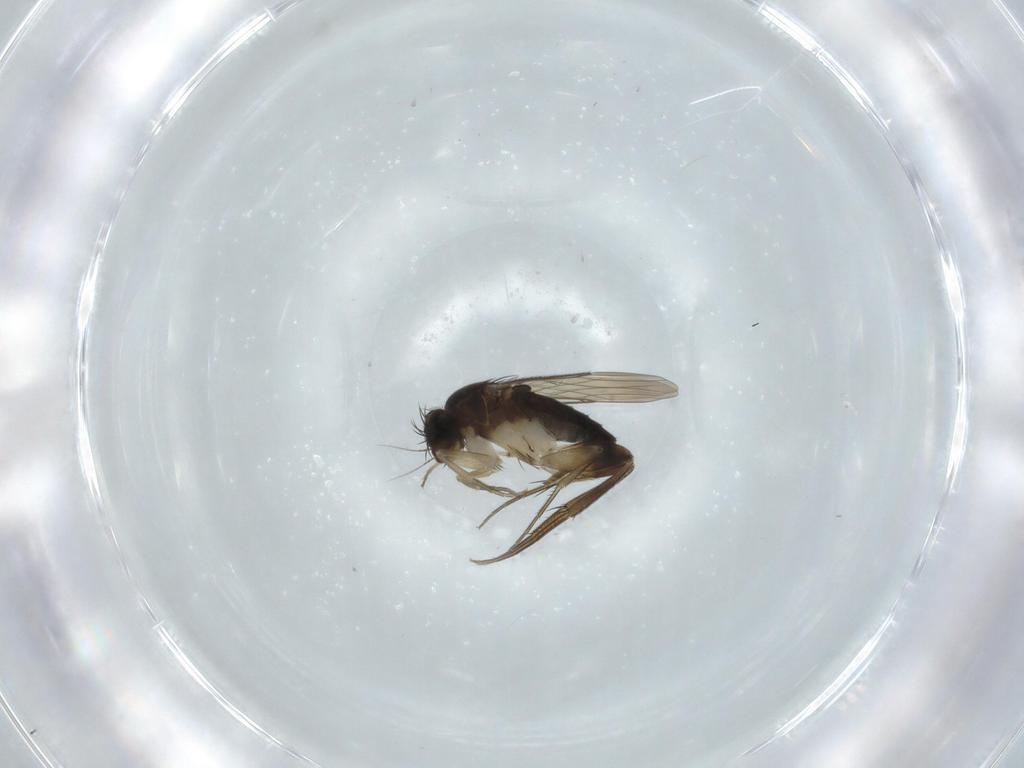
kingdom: Animalia
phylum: Arthropoda
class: Insecta
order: Diptera
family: Phoridae
